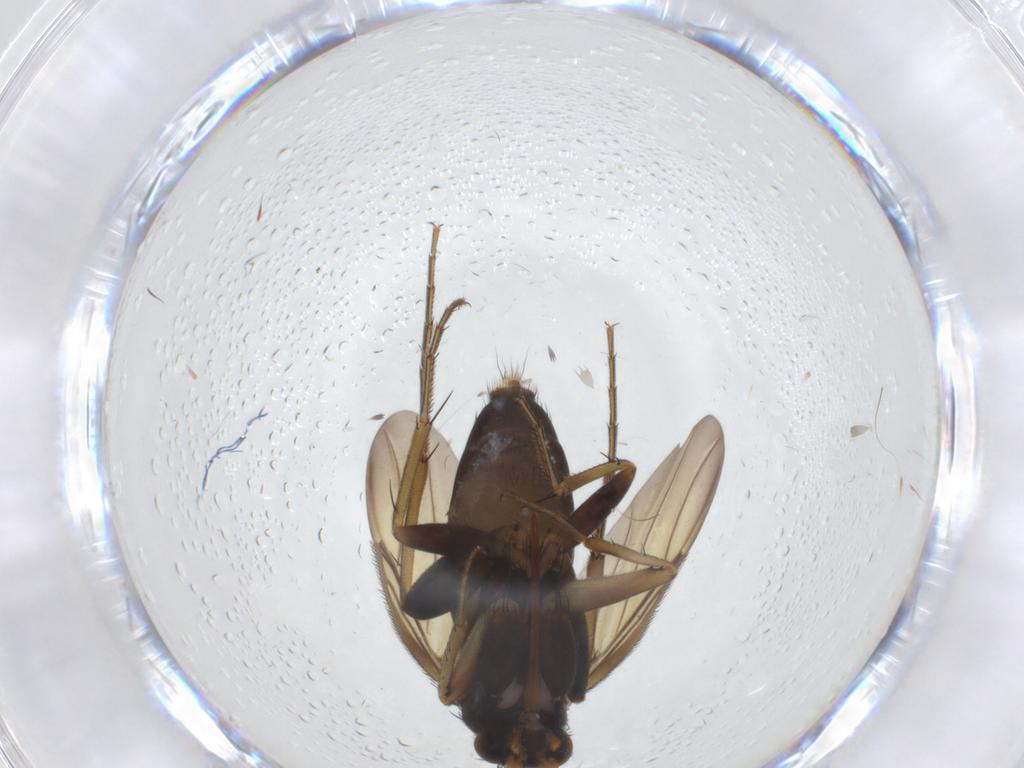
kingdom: Animalia
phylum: Arthropoda
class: Insecta
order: Diptera
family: Phoridae
